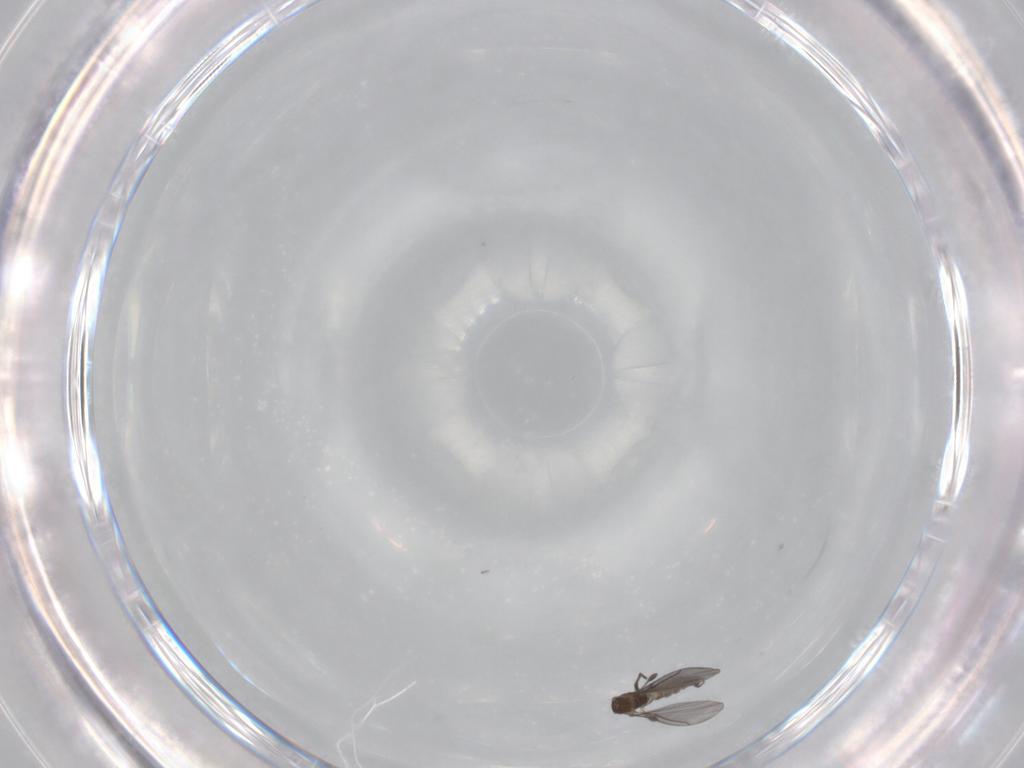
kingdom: Animalia
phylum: Arthropoda
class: Insecta
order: Diptera
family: Sciaridae
